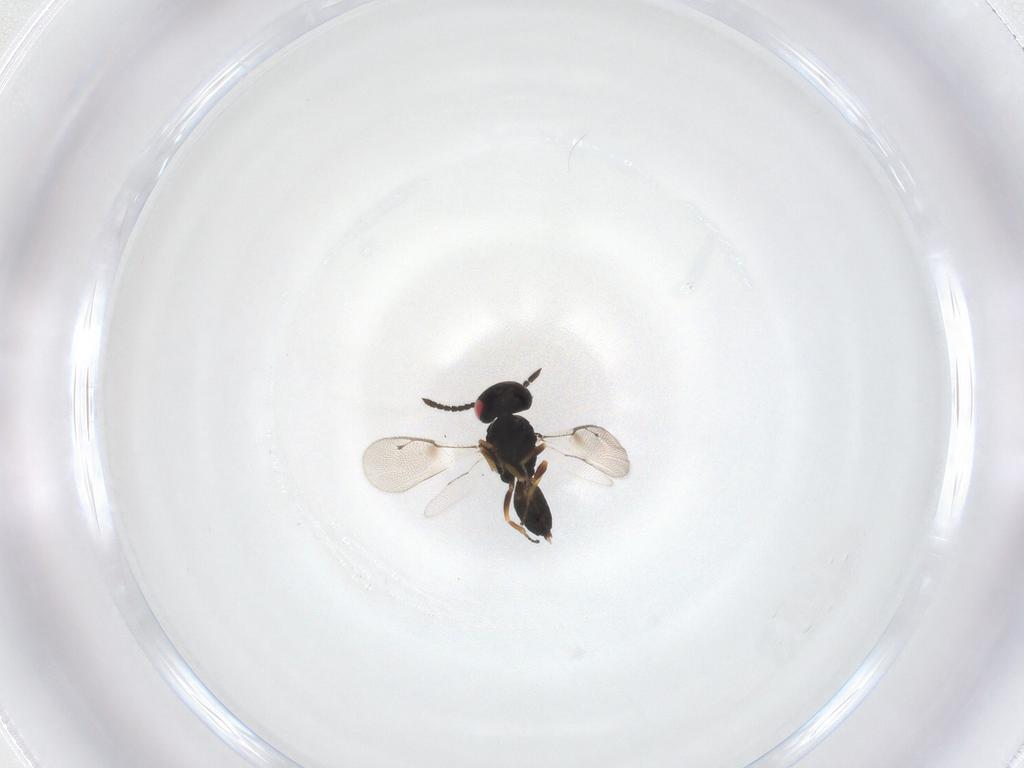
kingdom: Animalia
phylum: Arthropoda
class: Insecta
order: Hymenoptera
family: Pteromalidae
